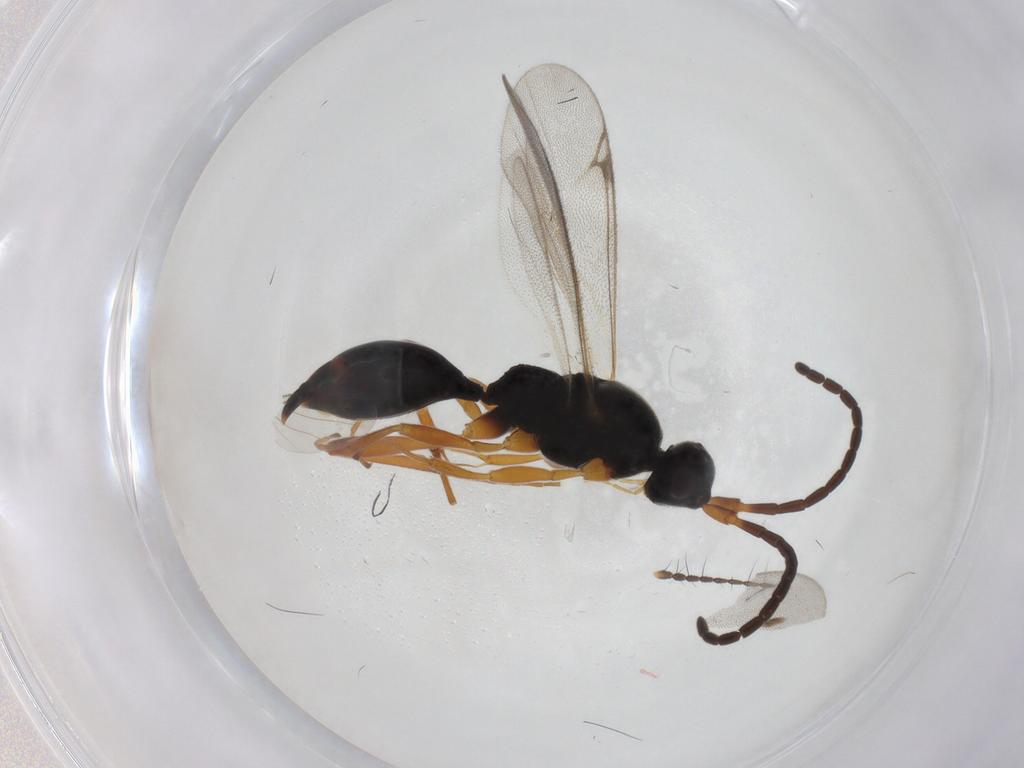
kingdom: Animalia
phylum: Arthropoda
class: Insecta
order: Hymenoptera
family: Proctotrupidae
